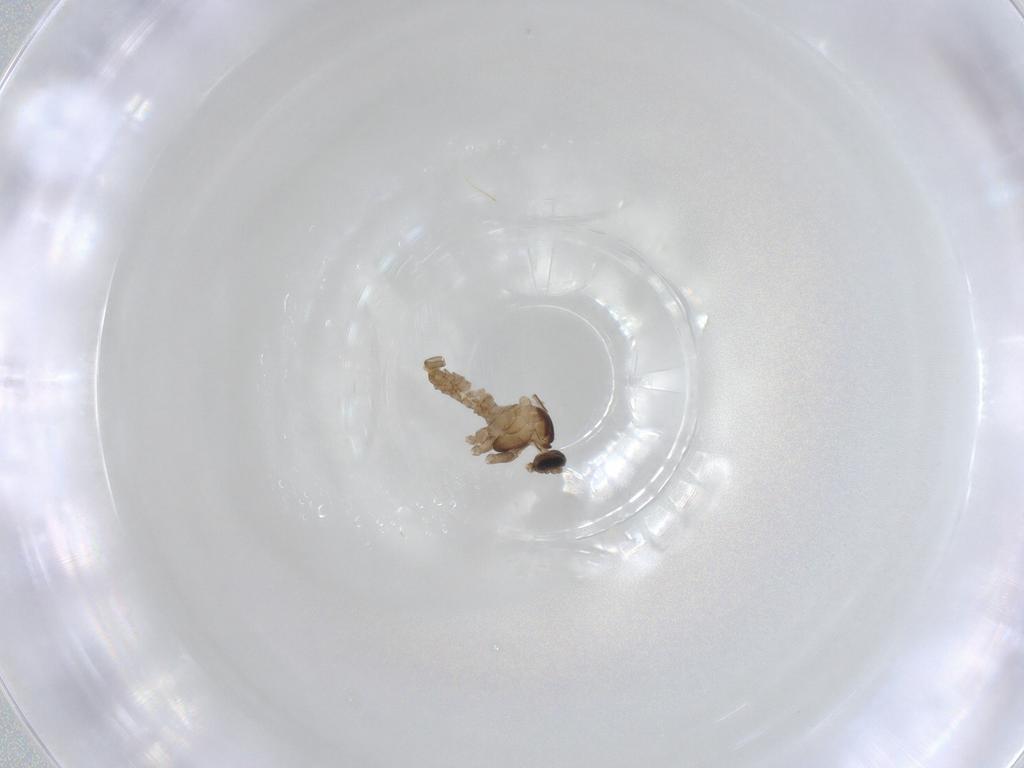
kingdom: Animalia
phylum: Arthropoda
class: Insecta
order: Diptera
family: Cecidomyiidae
